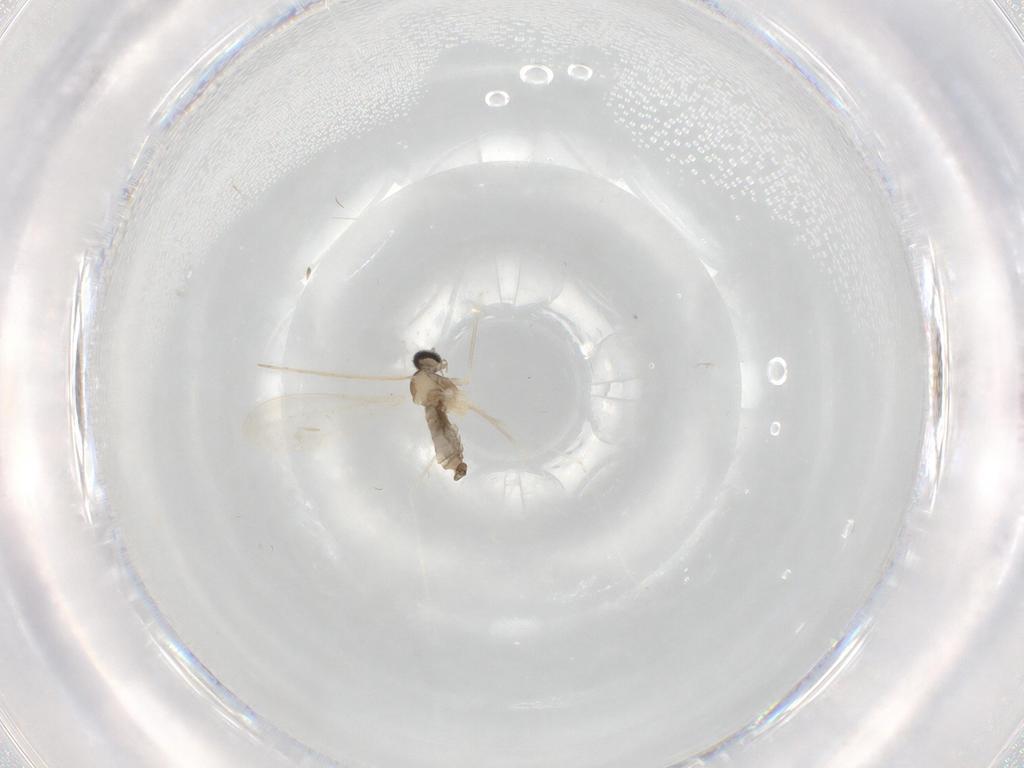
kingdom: Animalia
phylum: Arthropoda
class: Insecta
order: Diptera
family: Cecidomyiidae
